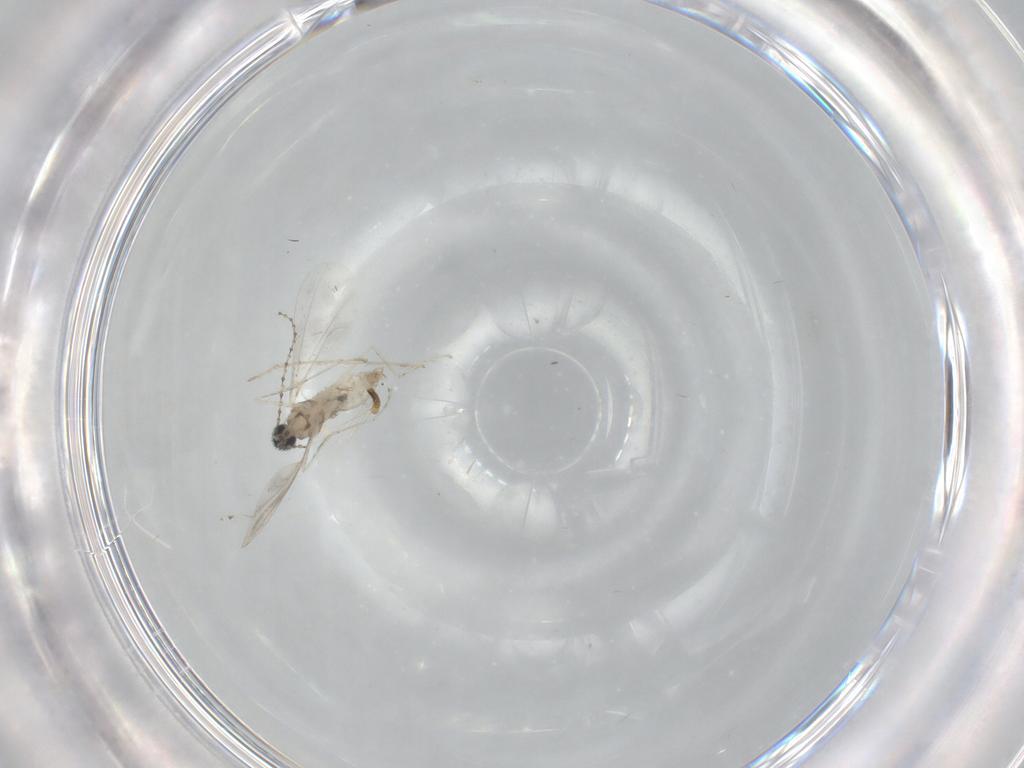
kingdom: Animalia
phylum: Arthropoda
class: Insecta
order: Diptera
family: Cecidomyiidae
